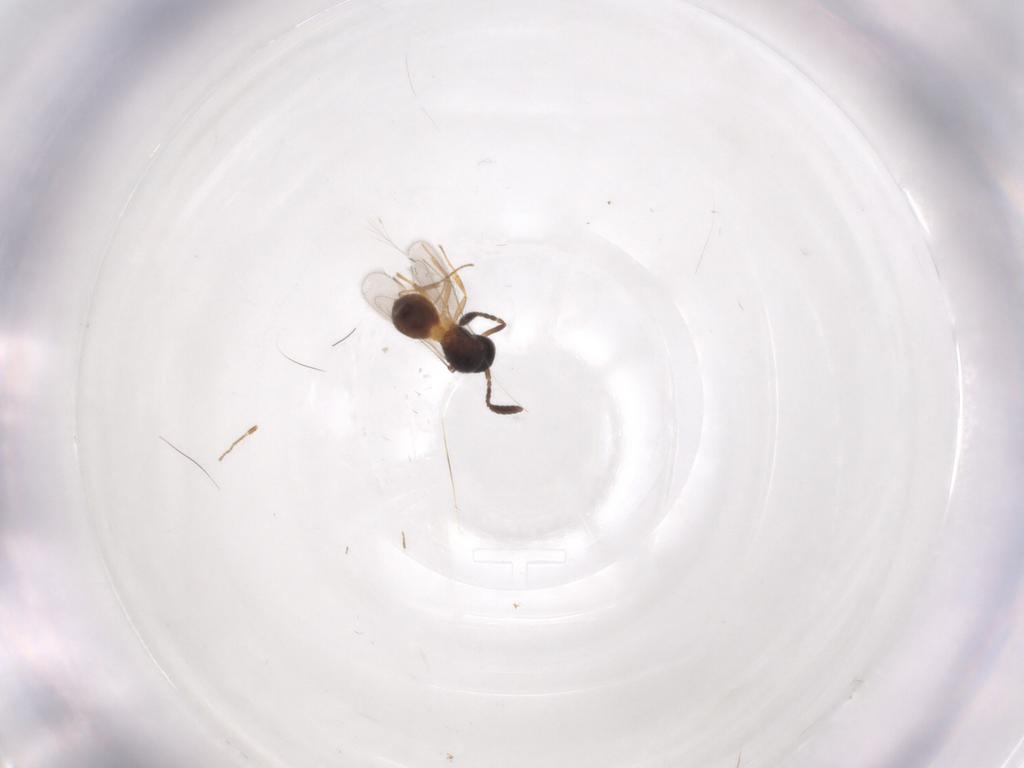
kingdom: Animalia
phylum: Arthropoda
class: Insecta
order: Hymenoptera
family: Scelionidae
